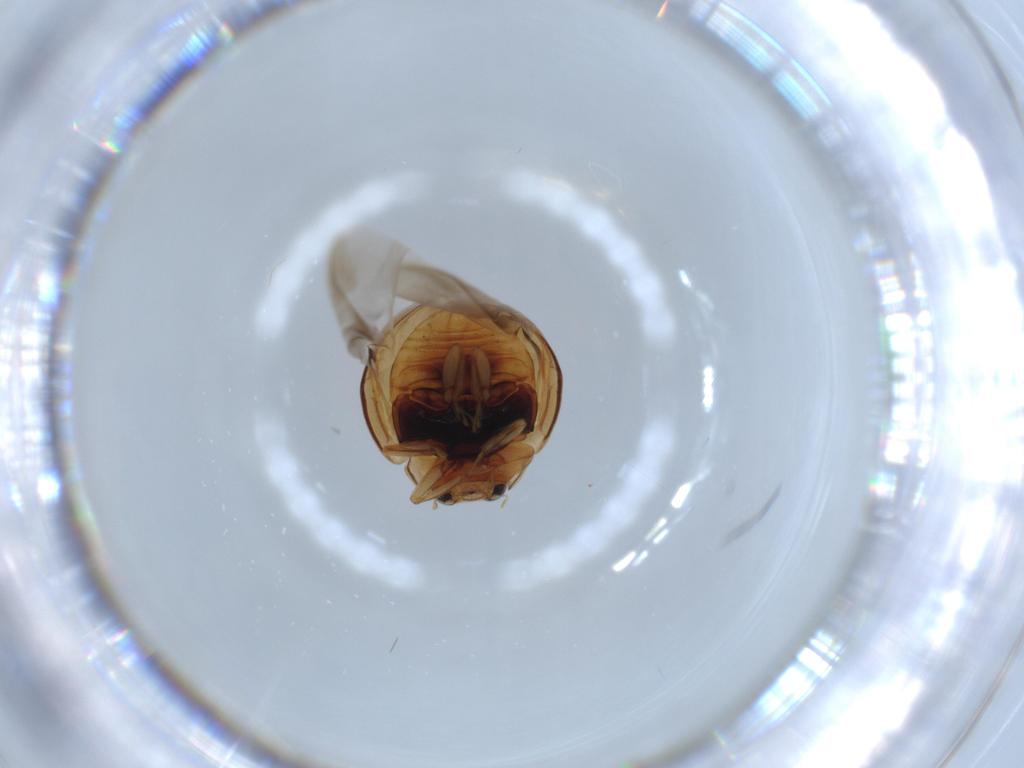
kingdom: Animalia
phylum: Arthropoda
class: Insecta
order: Coleoptera
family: Coccinellidae
